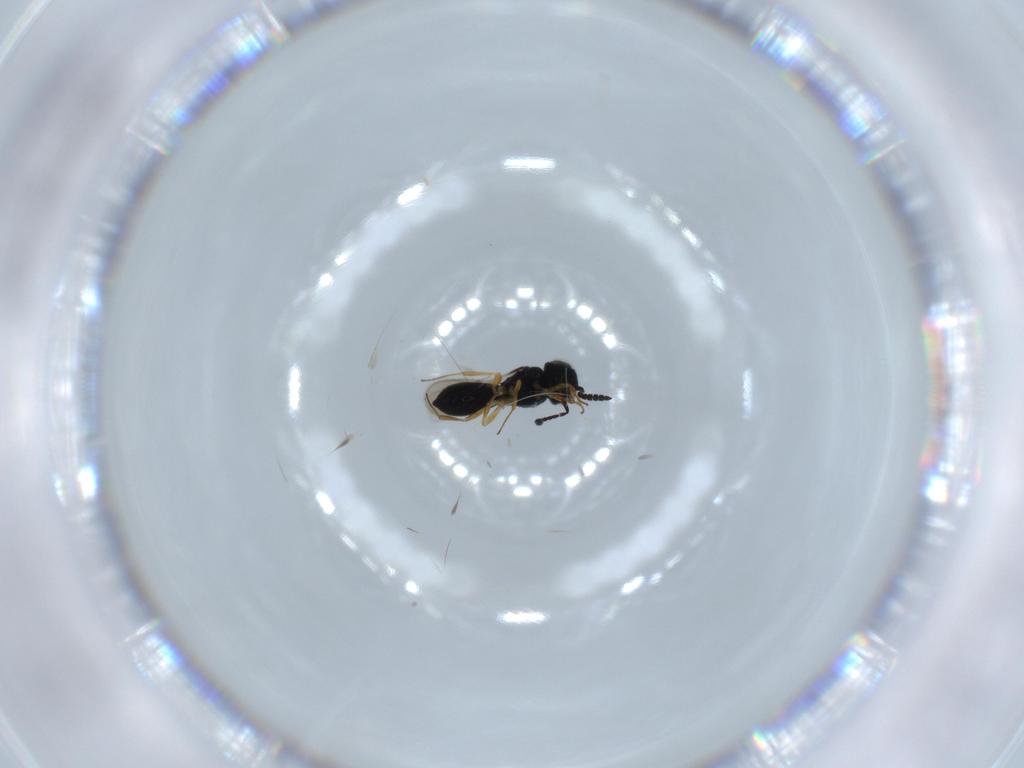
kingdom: Animalia
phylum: Arthropoda
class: Insecta
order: Hymenoptera
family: Scelionidae
